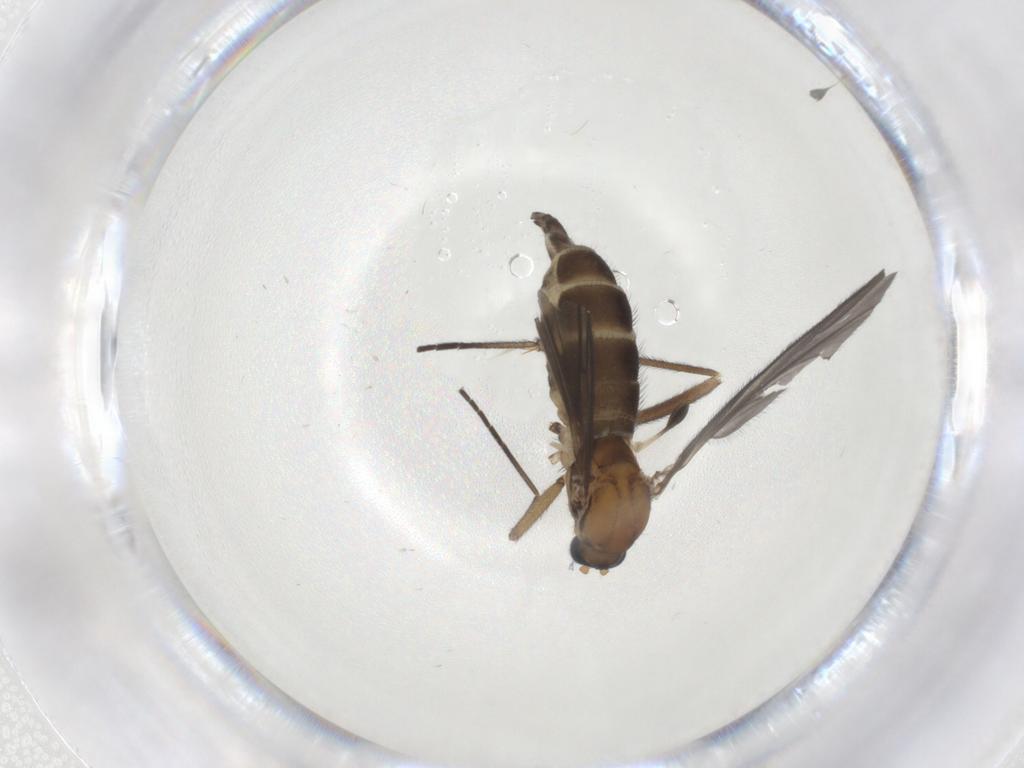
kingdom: Animalia
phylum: Arthropoda
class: Insecta
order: Diptera
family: Sciaridae
